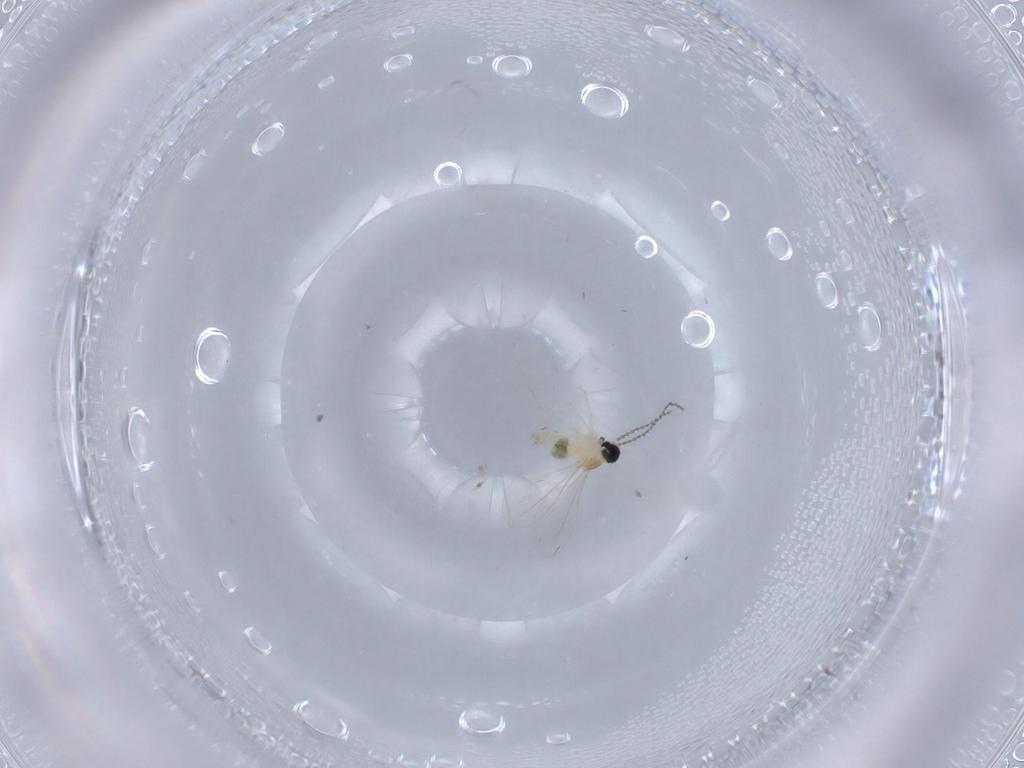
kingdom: Animalia
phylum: Arthropoda
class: Insecta
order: Diptera
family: Cecidomyiidae
